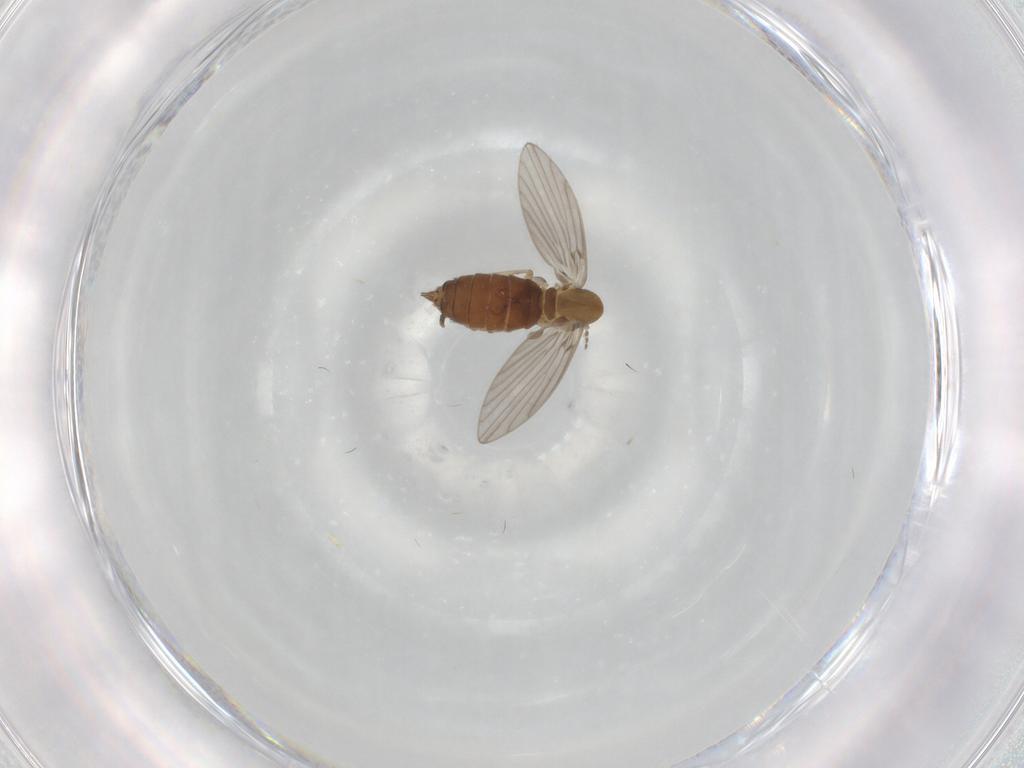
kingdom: Animalia
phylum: Arthropoda
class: Insecta
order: Diptera
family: Psychodidae
